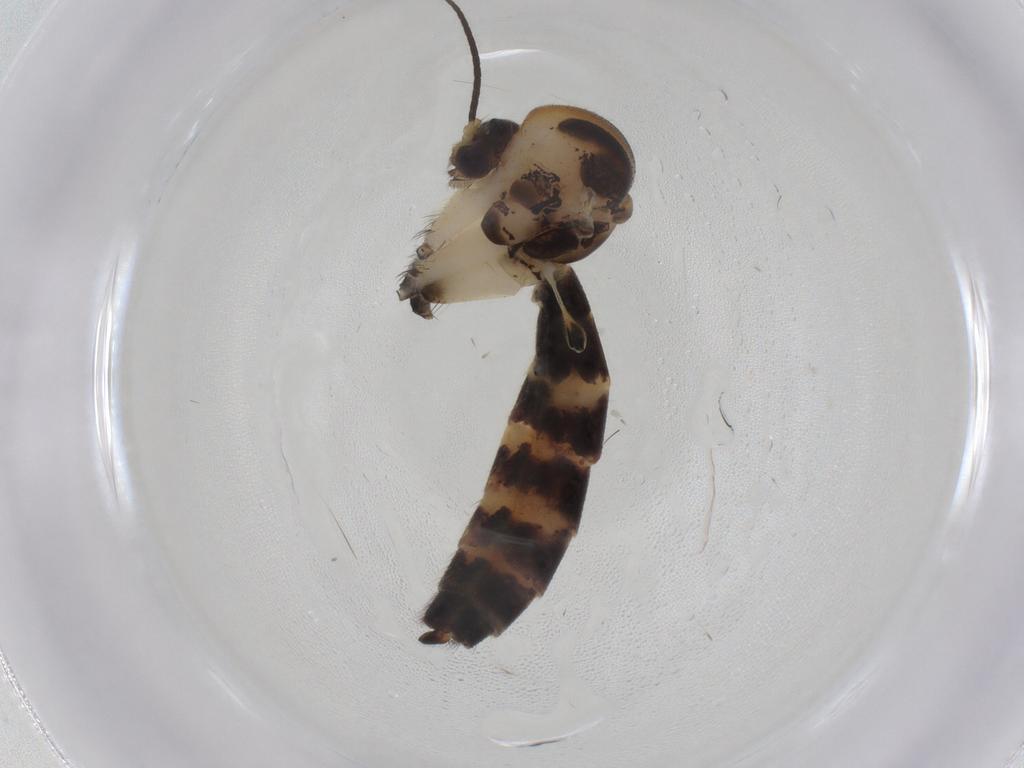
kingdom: Animalia
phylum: Arthropoda
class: Insecta
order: Diptera
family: Mycetophilidae
